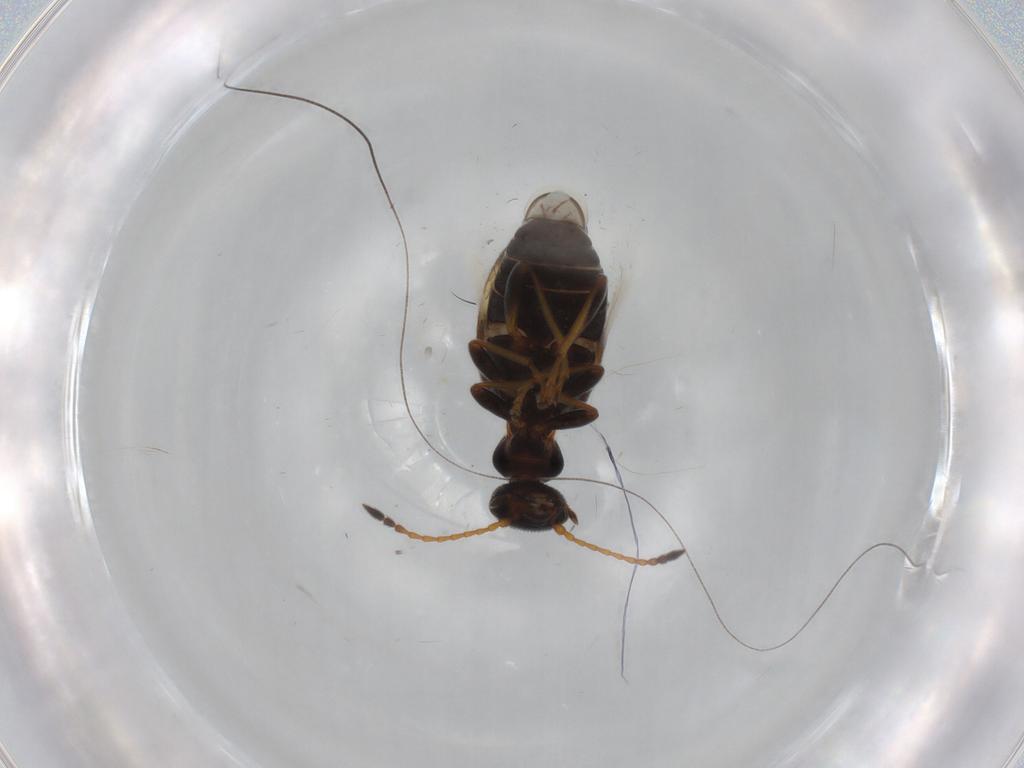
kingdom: Animalia
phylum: Arthropoda
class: Insecta
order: Coleoptera
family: Anthicidae
